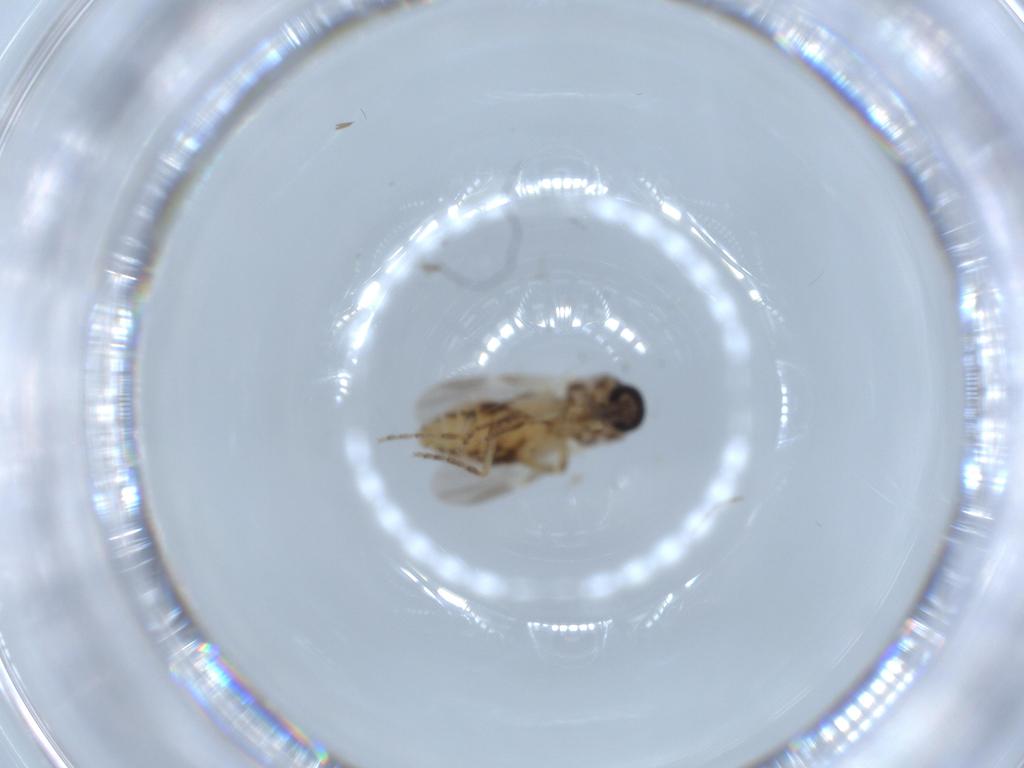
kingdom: Animalia
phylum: Arthropoda
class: Insecta
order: Diptera
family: Ceratopogonidae
